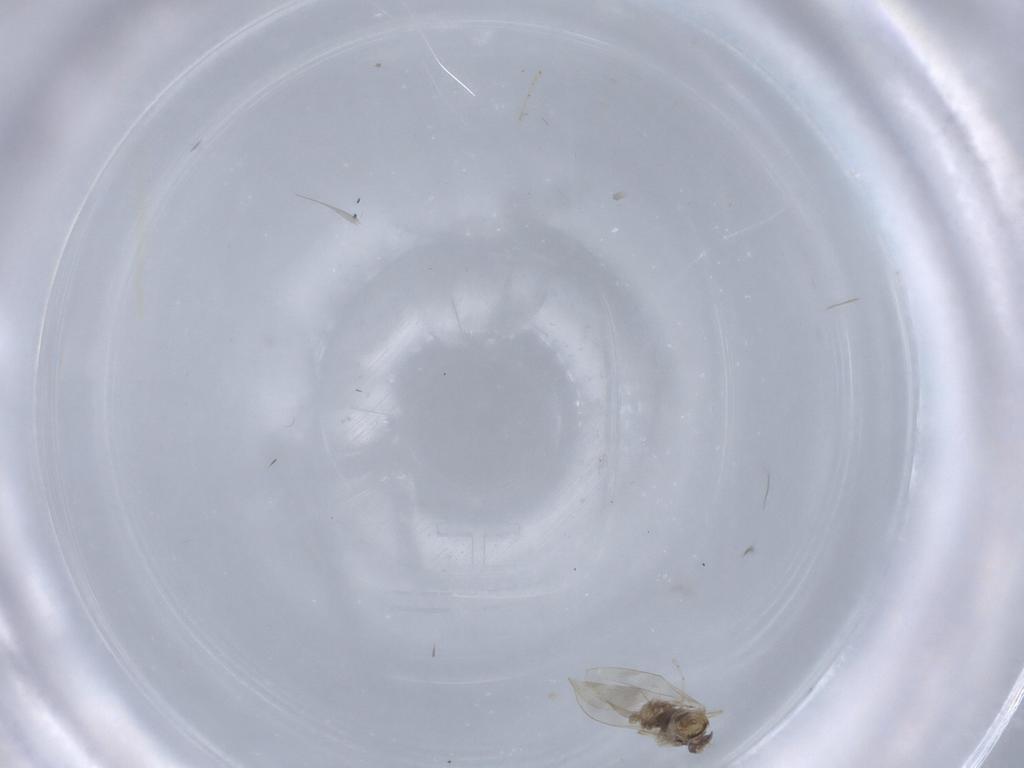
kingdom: Animalia
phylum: Arthropoda
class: Insecta
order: Diptera
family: Cecidomyiidae
